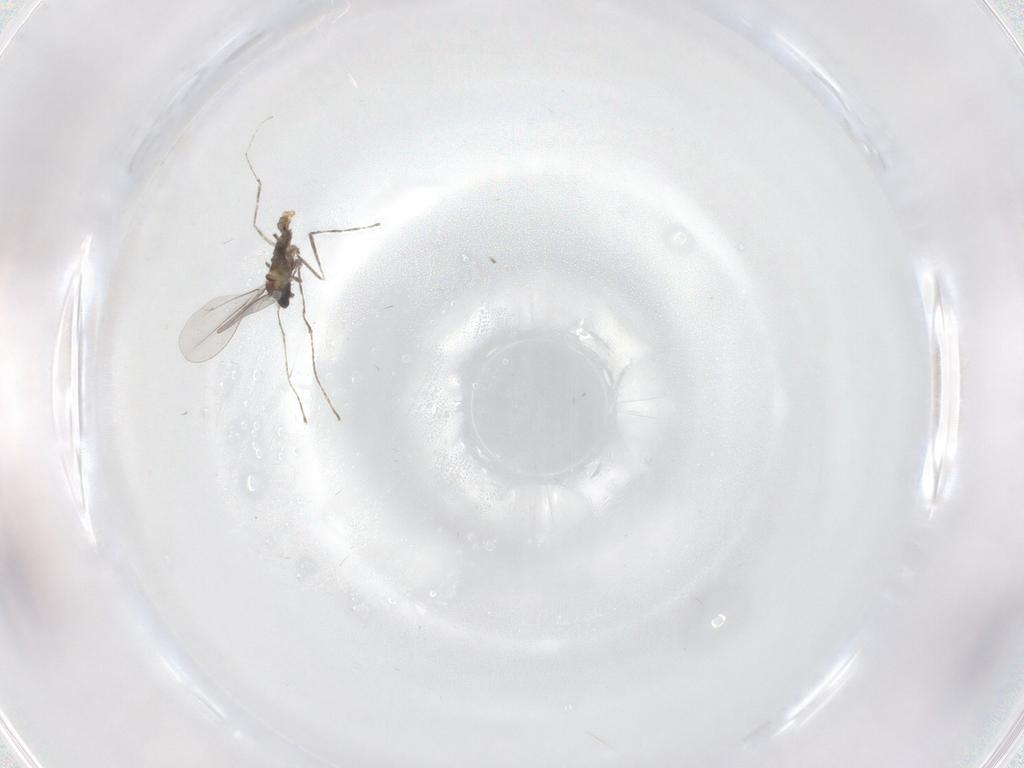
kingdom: Animalia
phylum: Arthropoda
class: Insecta
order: Diptera
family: Cecidomyiidae
